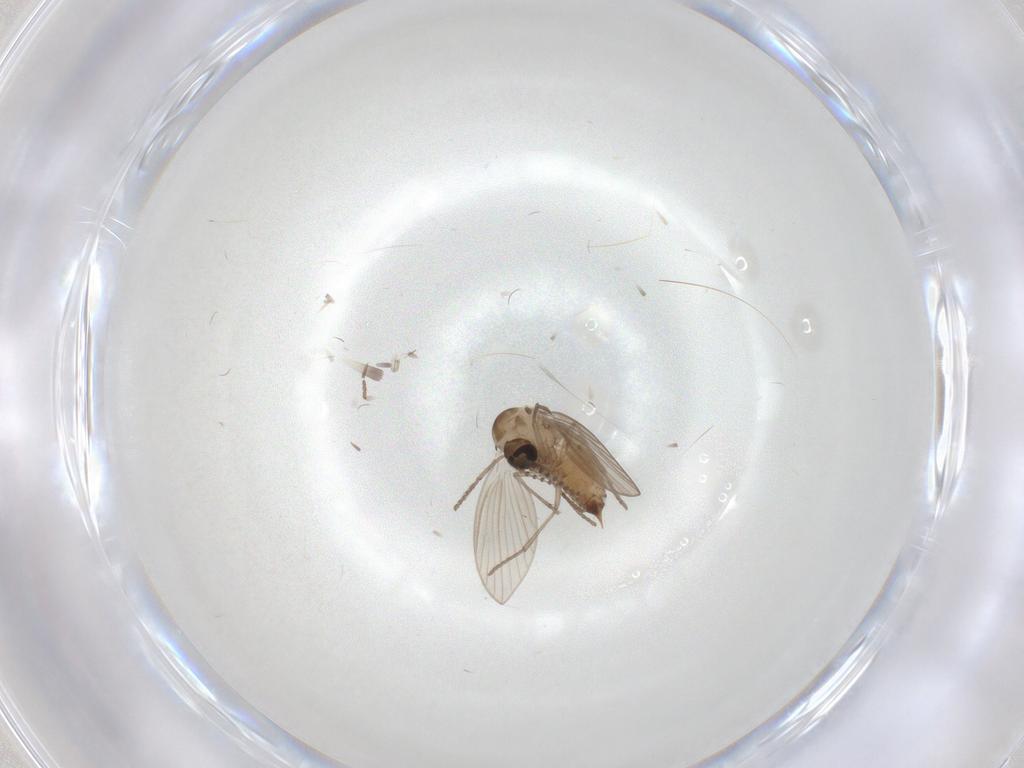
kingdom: Animalia
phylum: Arthropoda
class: Insecta
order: Diptera
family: Psychodidae
